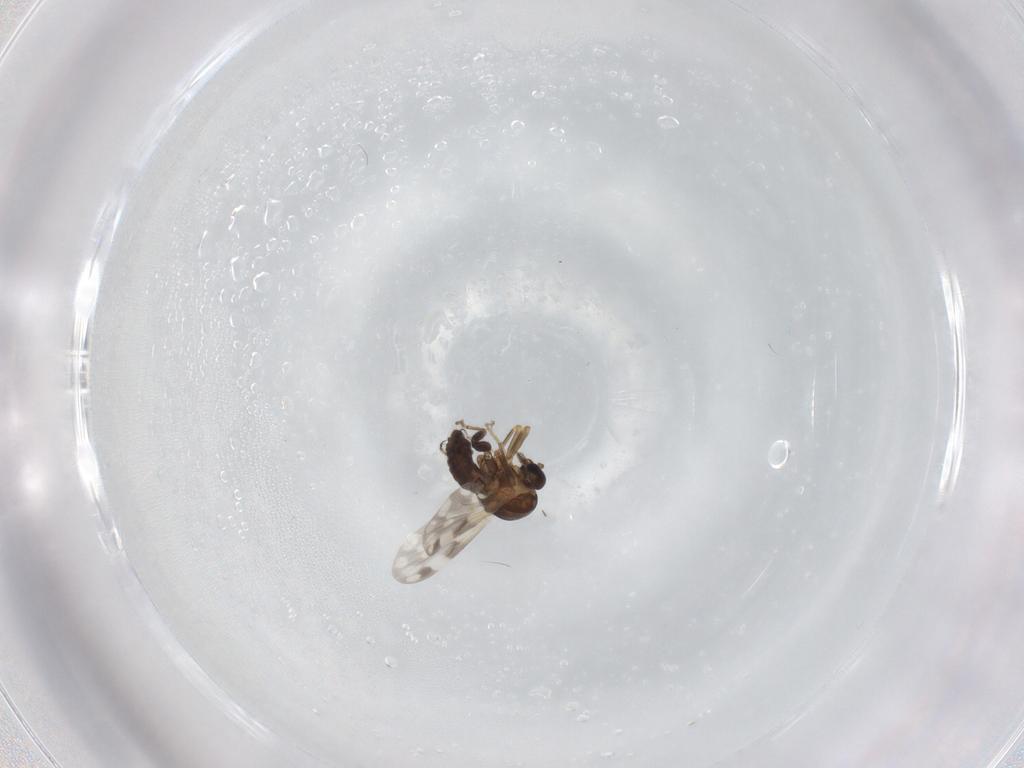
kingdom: Animalia
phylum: Arthropoda
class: Insecta
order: Diptera
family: Ceratopogonidae
